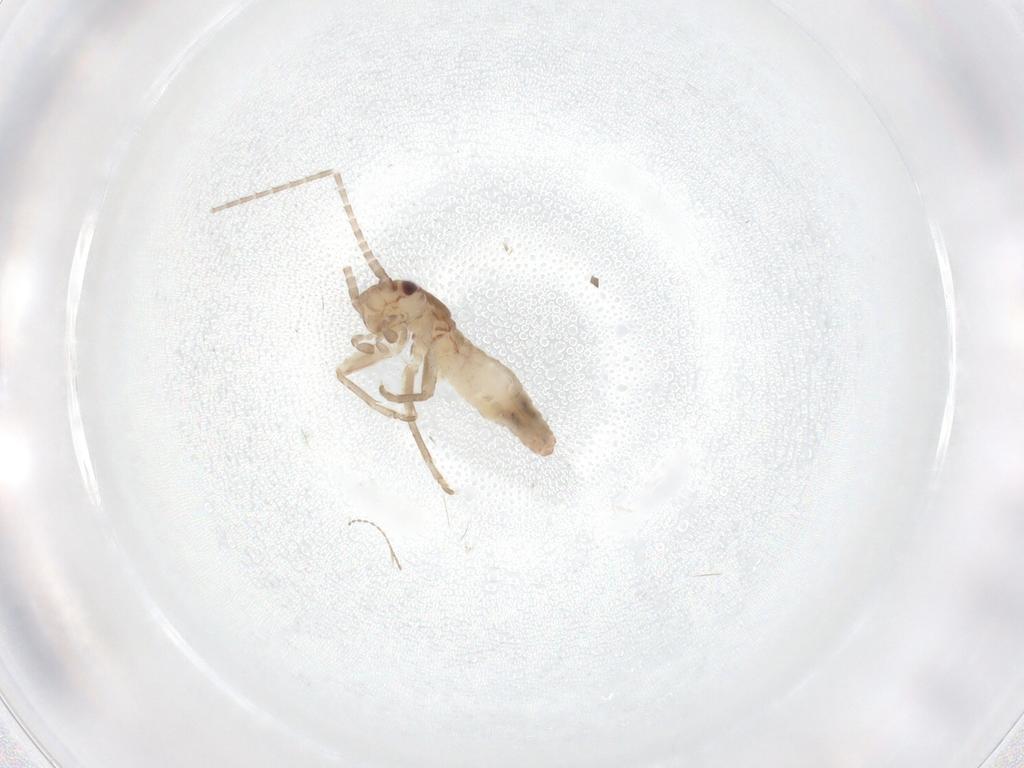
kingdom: Animalia
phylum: Arthropoda
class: Insecta
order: Orthoptera
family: Mogoplistidae
